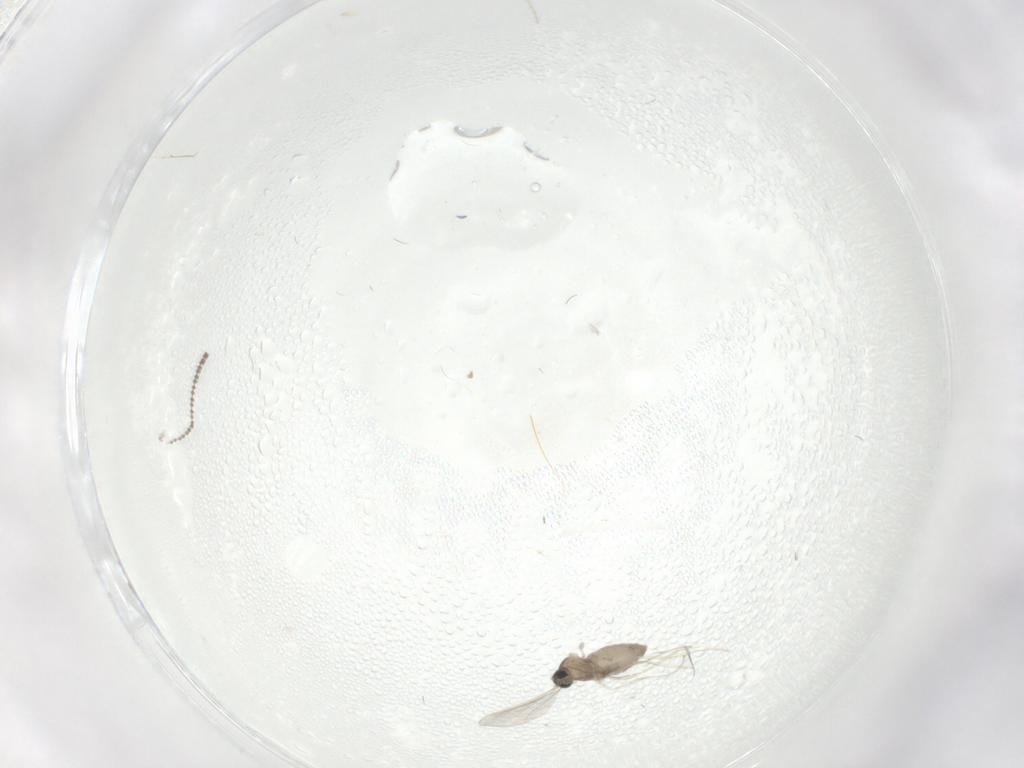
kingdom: Animalia
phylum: Arthropoda
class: Insecta
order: Diptera
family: Cecidomyiidae
